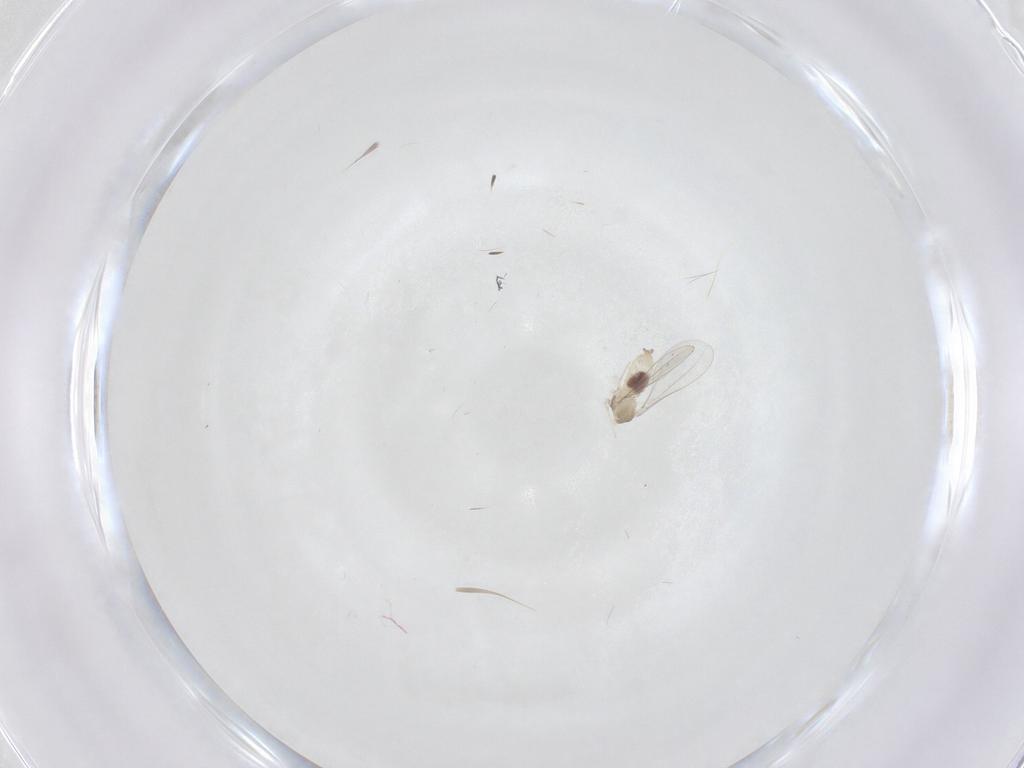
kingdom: Animalia
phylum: Arthropoda
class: Insecta
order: Diptera
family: Cecidomyiidae
